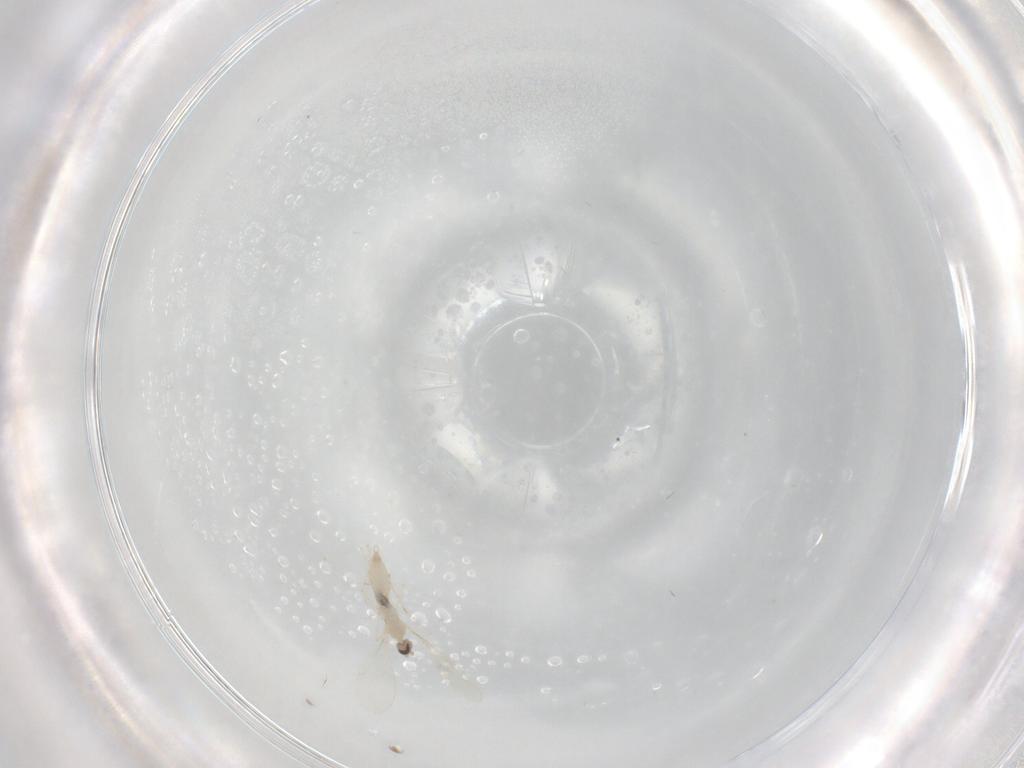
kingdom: Animalia
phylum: Arthropoda
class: Insecta
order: Diptera
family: Cecidomyiidae
